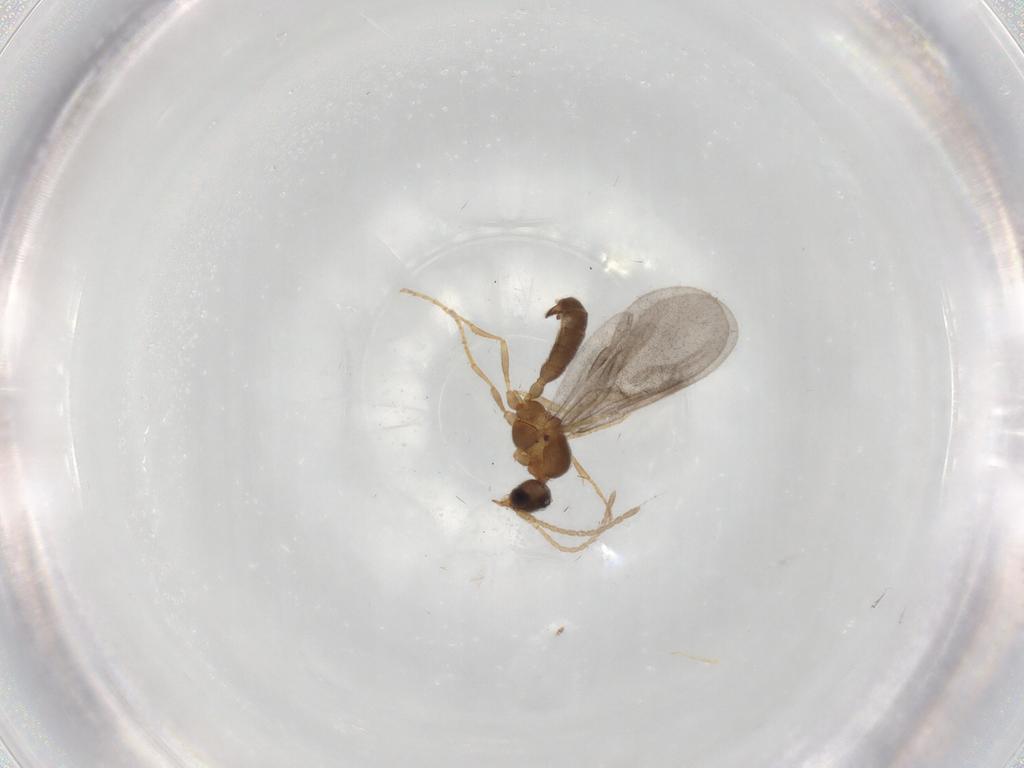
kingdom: Animalia
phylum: Arthropoda
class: Insecta
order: Hymenoptera
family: Formicidae
